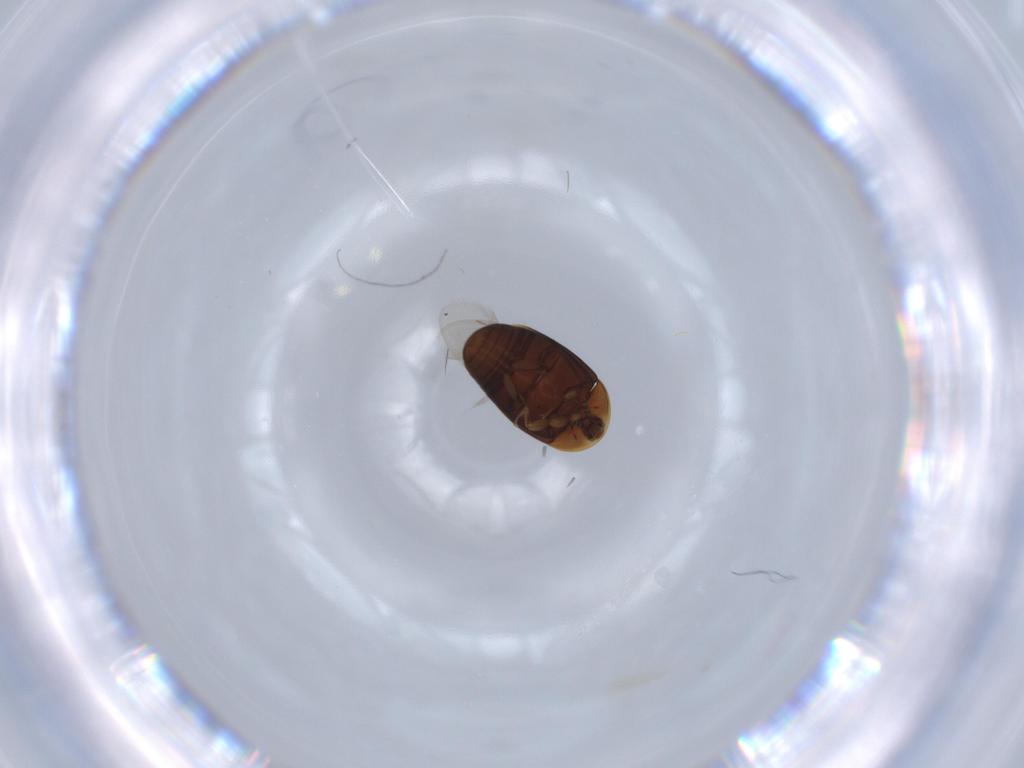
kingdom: Animalia
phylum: Arthropoda
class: Insecta
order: Coleoptera
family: Corylophidae
